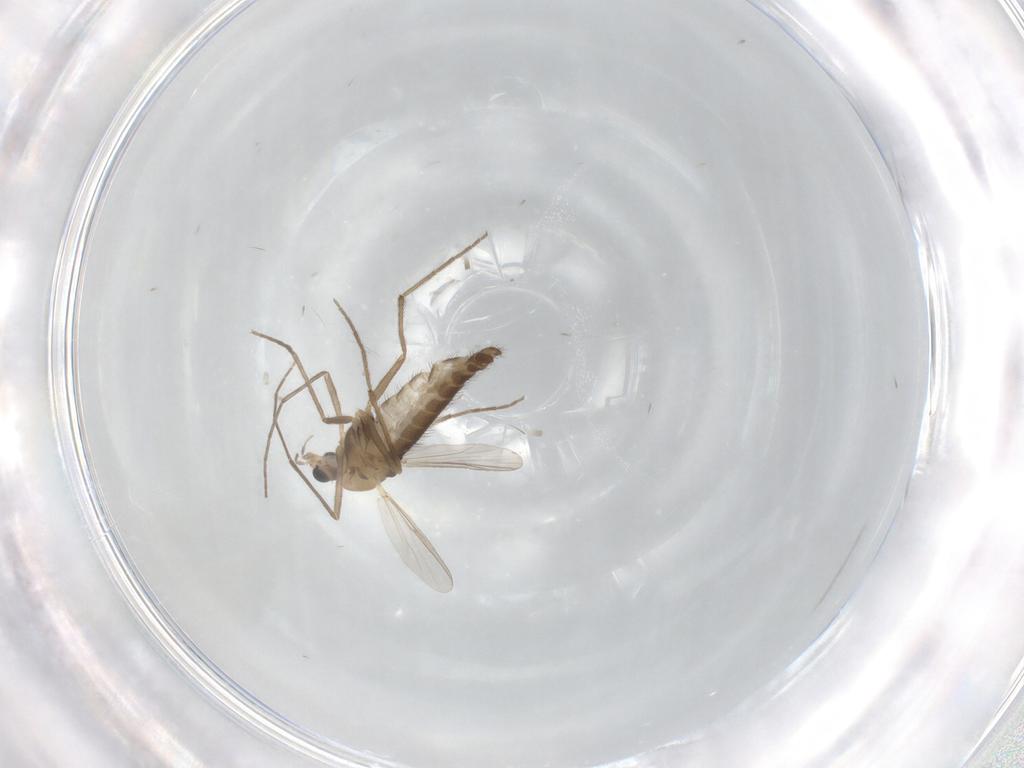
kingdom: Animalia
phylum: Arthropoda
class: Insecta
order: Diptera
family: Chironomidae
